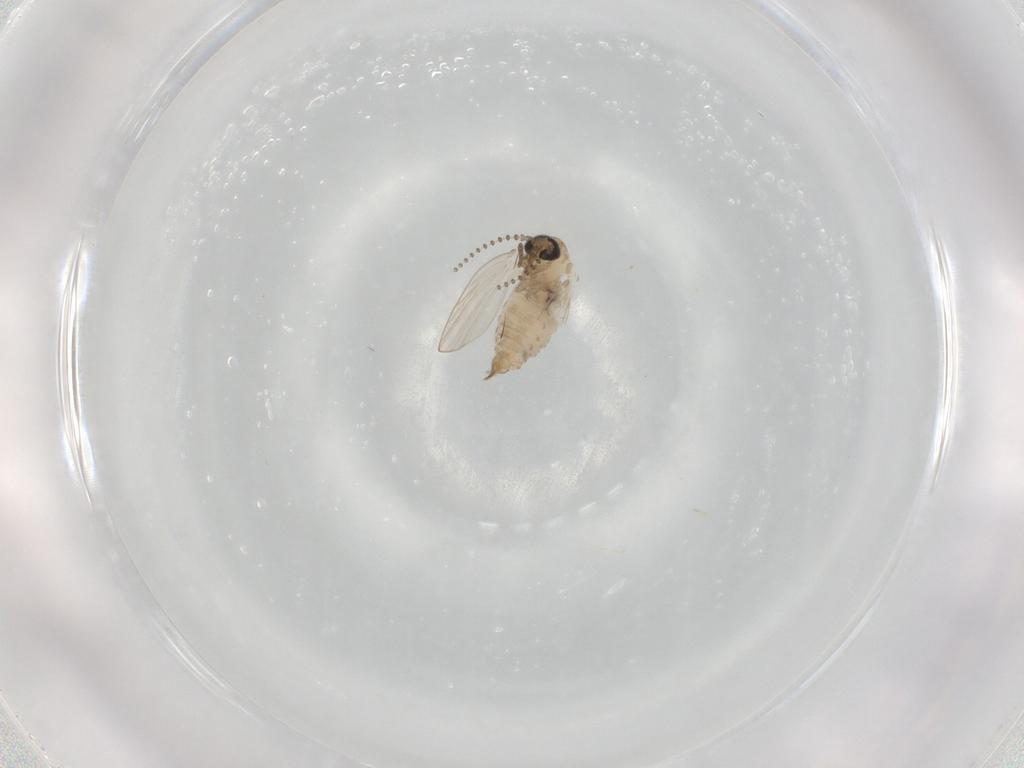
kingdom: Animalia
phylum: Arthropoda
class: Insecta
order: Diptera
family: Psychodidae
